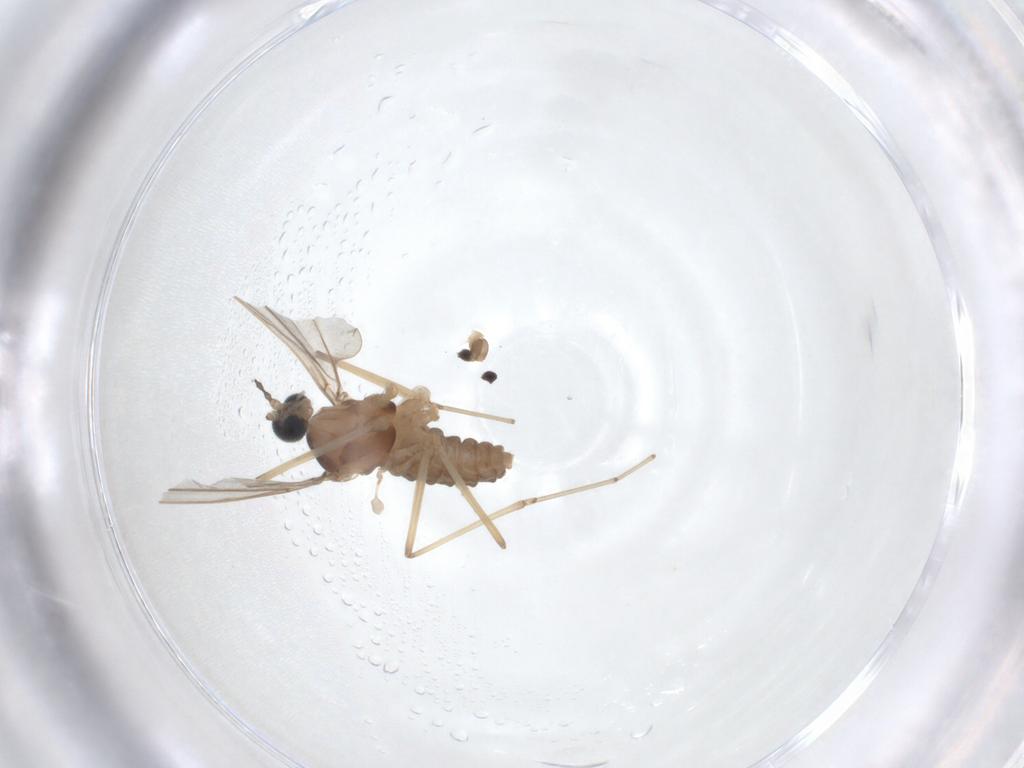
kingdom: Animalia
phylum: Arthropoda
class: Insecta
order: Diptera
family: Cecidomyiidae
